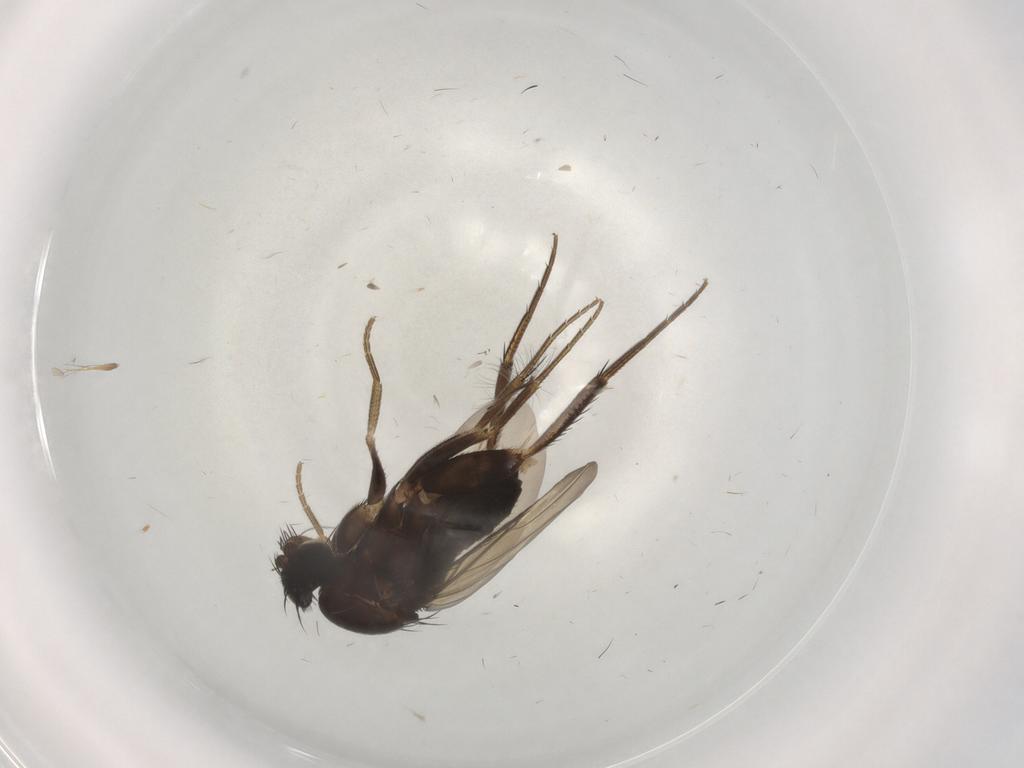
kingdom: Animalia
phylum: Arthropoda
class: Insecta
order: Diptera
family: Chironomidae
